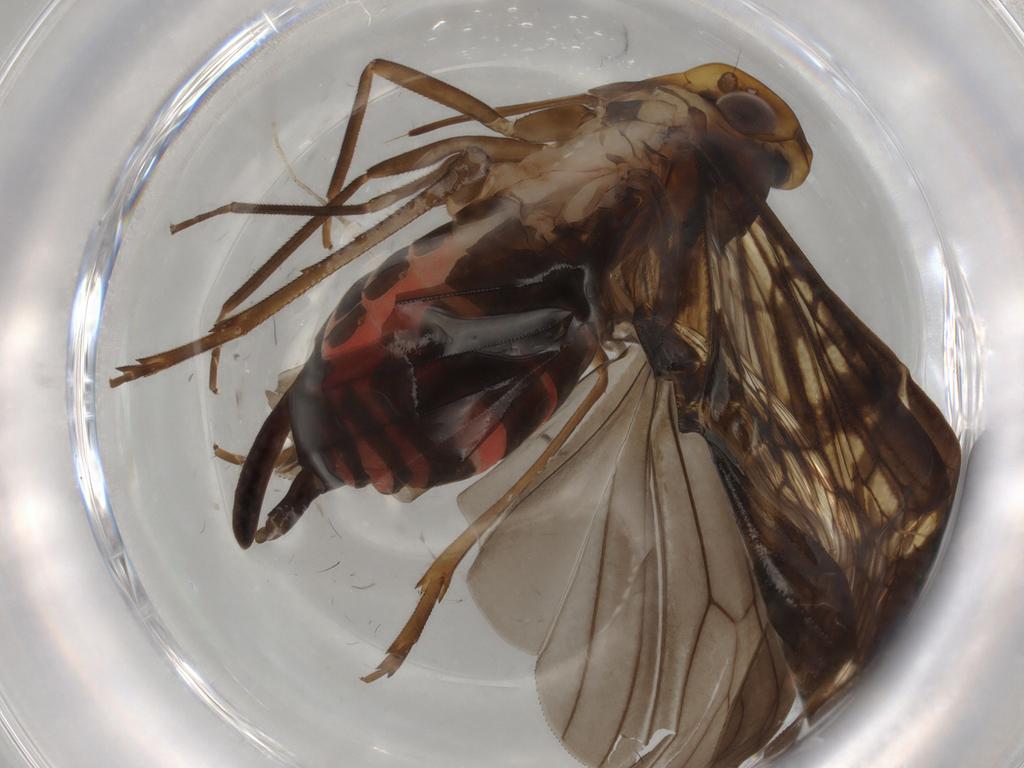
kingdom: Animalia
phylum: Arthropoda
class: Insecta
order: Hemiptera
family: Cixiidae
